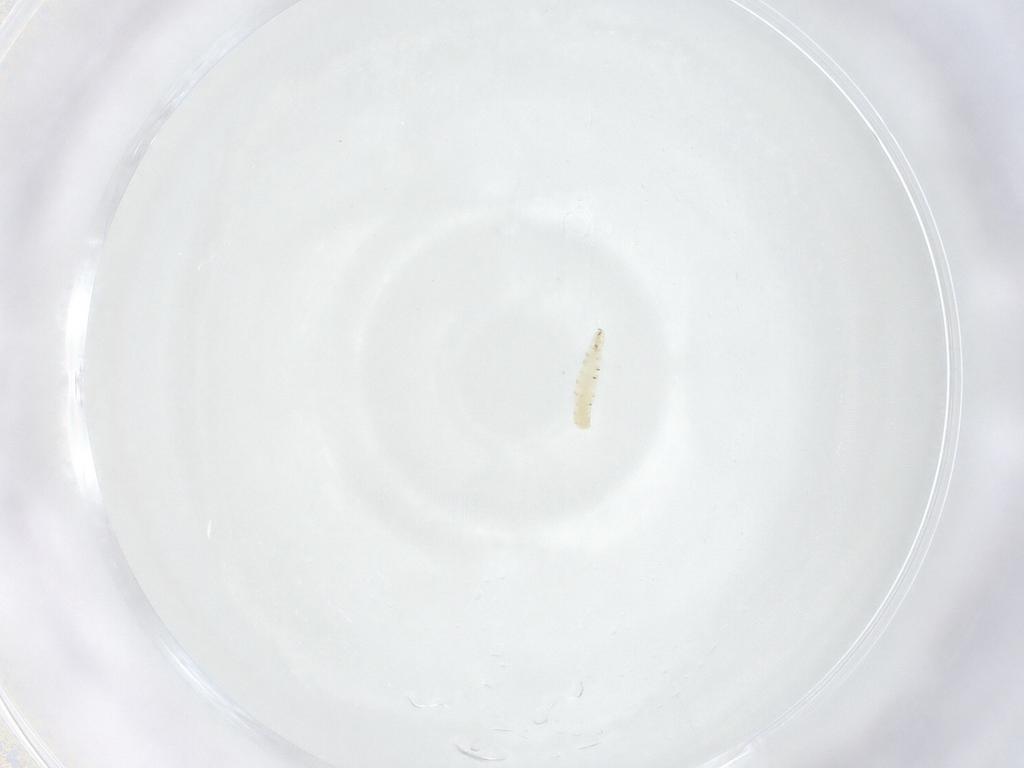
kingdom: Animalia
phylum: Arthropoda
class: Insecta
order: Diptera
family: Sarcophagidae
